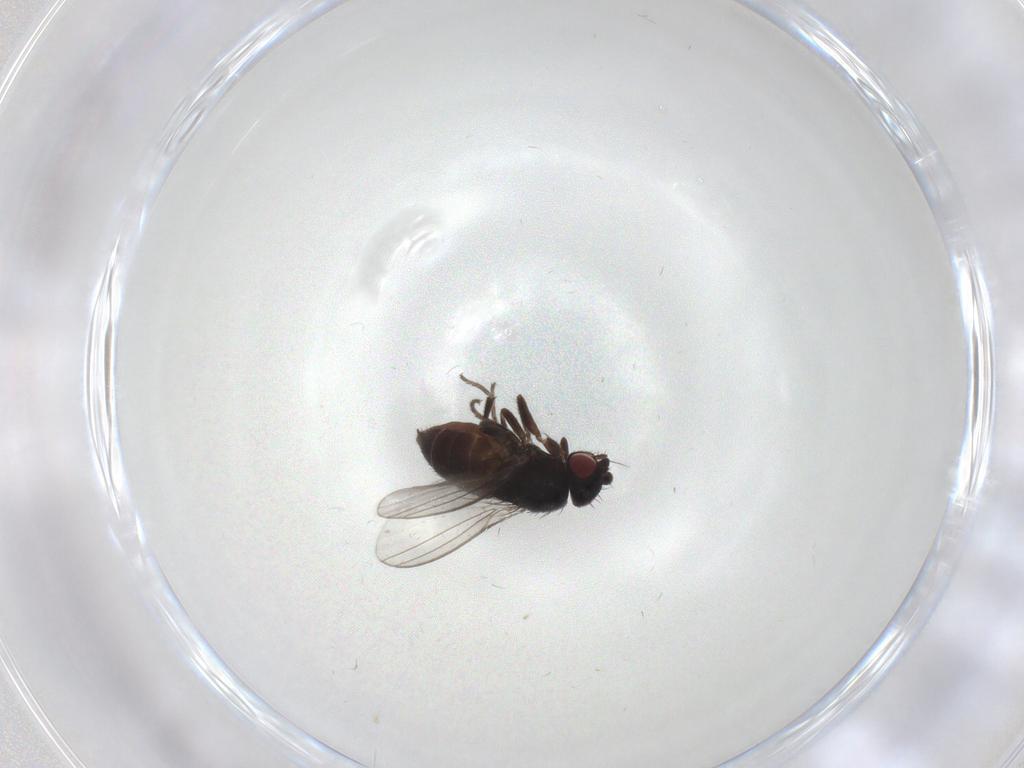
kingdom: Animalia
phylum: Arthropoda
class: Insecta
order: Diptera
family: Milichiidae
